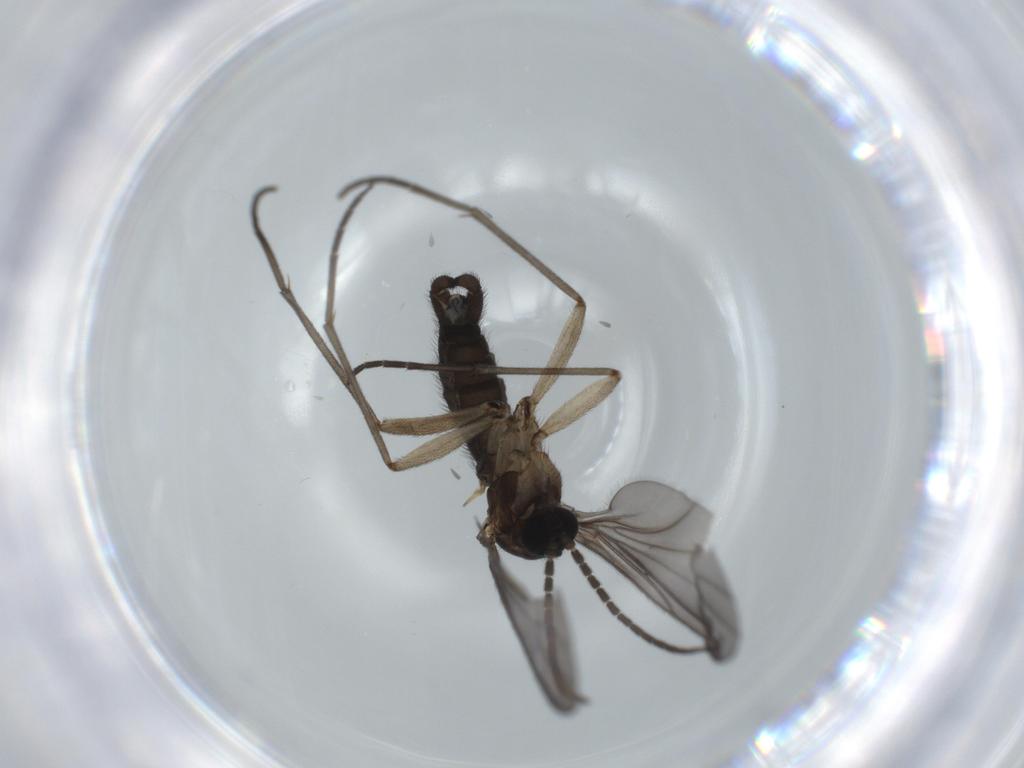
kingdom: Animalia
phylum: Arthropoda
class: Insecta
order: Diptera
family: Sciaridae
